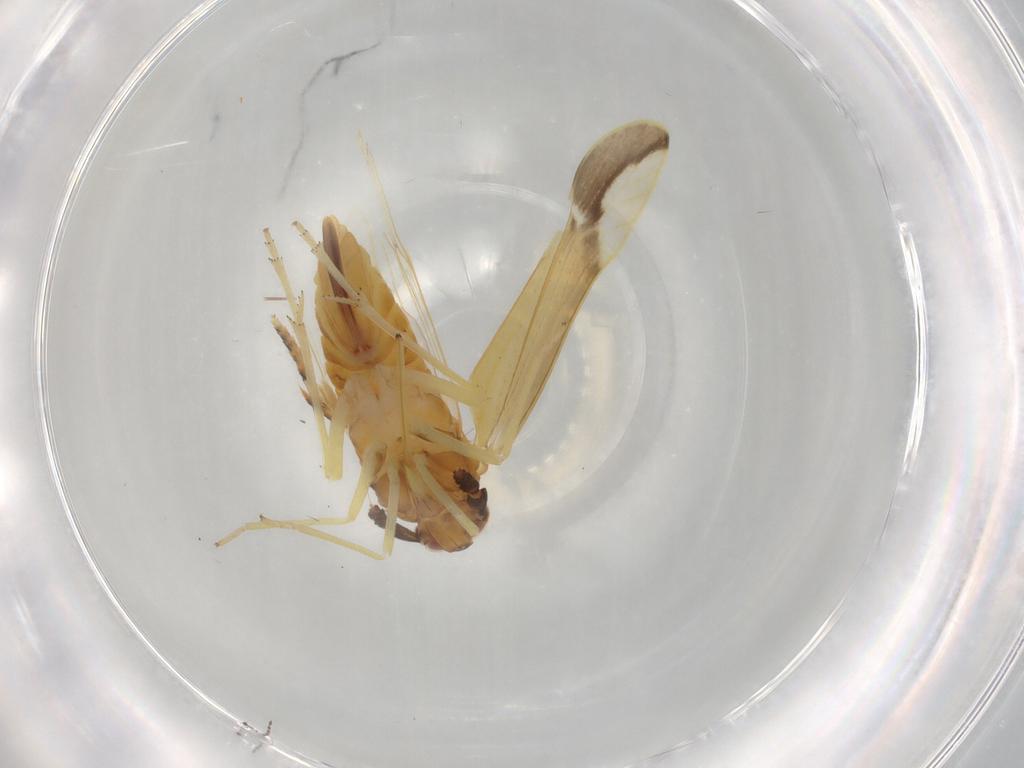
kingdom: Animalia
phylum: Arthropoda
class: Insecta
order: Hemiptera
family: Delphacidae
